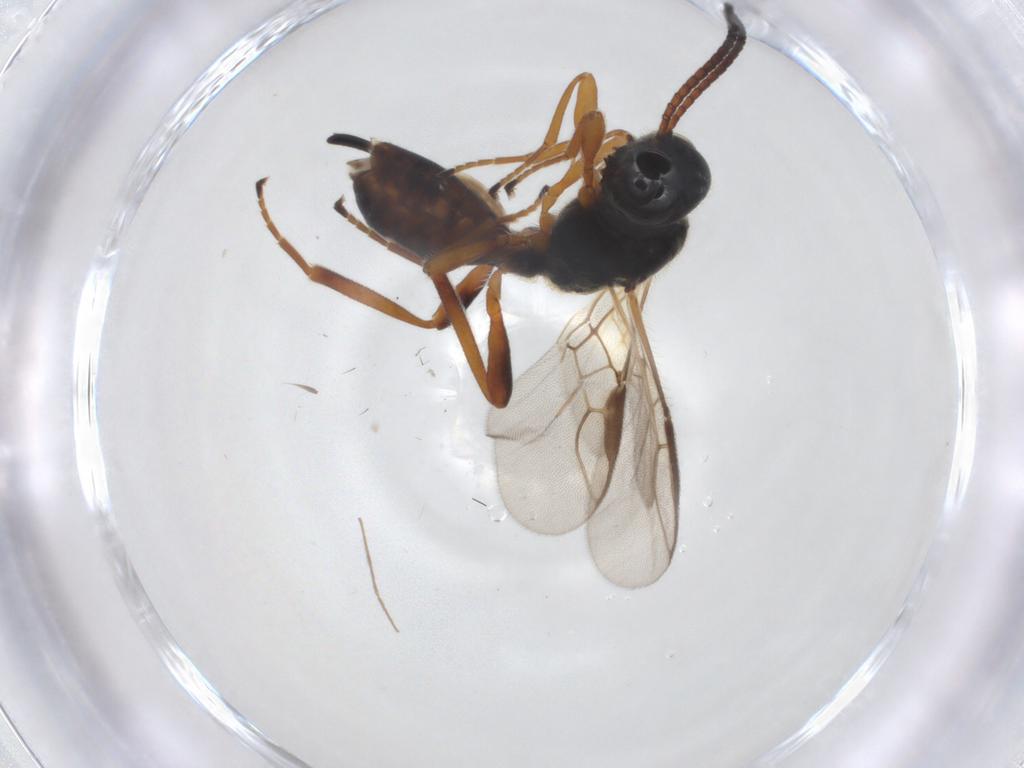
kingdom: Animalia
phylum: Arthropoda
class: Insecta
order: Hymenoptera
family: Braconidae
